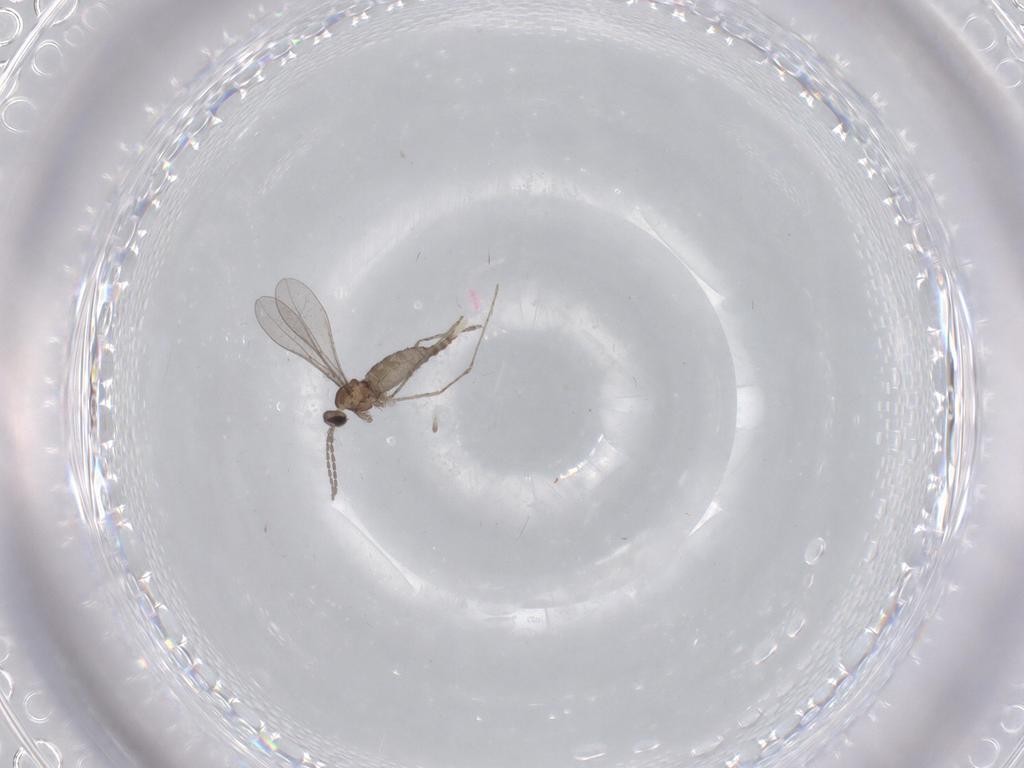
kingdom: Animalia
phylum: Arthropoda
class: Insecta
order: Diptera
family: Cecidomyiidae
